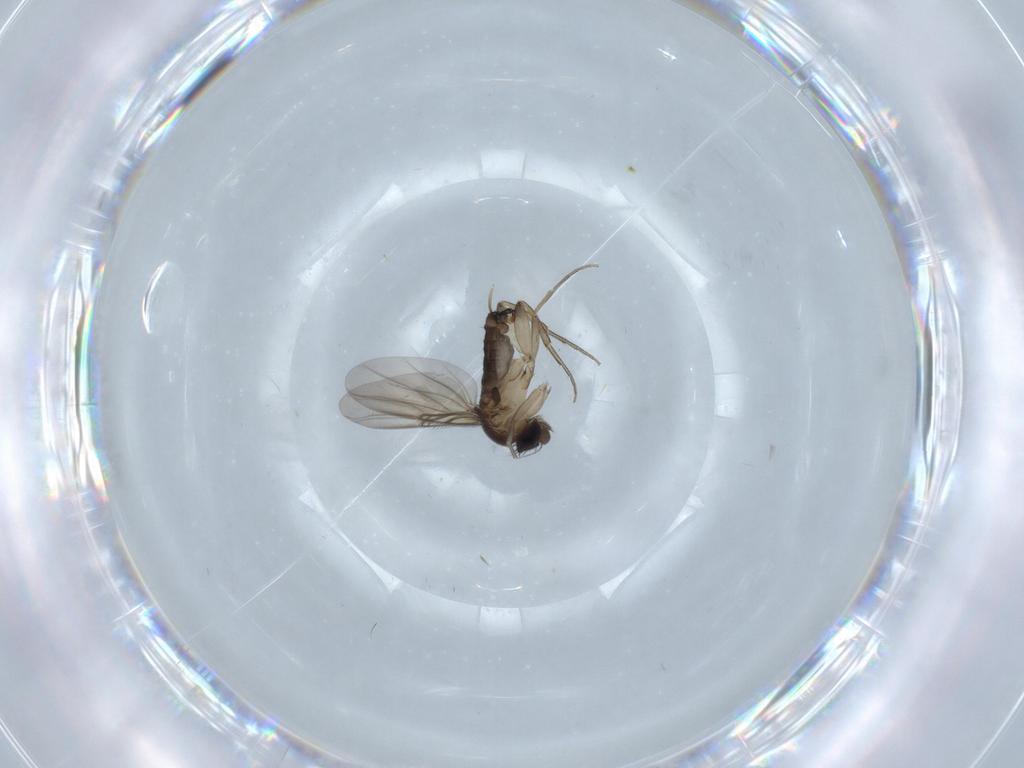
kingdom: Animalia
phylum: Arthropoda
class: Insecta
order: Diptera
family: Phoridae
